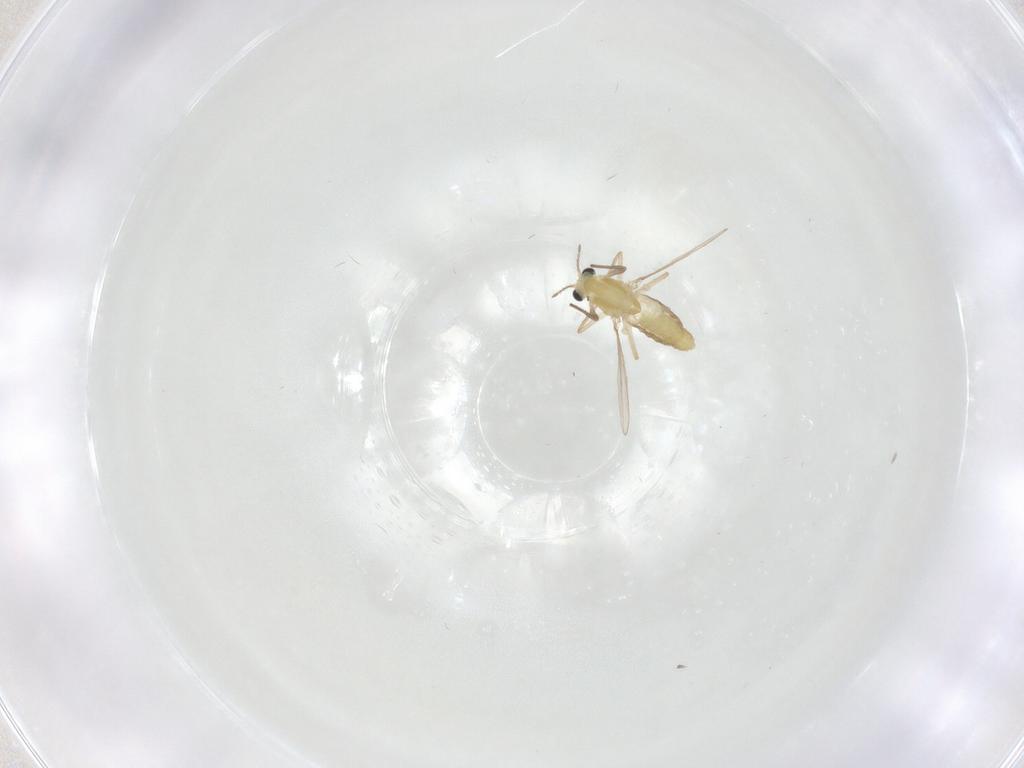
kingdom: Animalia
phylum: Arthropoda
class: Insecta
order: Diptera
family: Chironomidae
